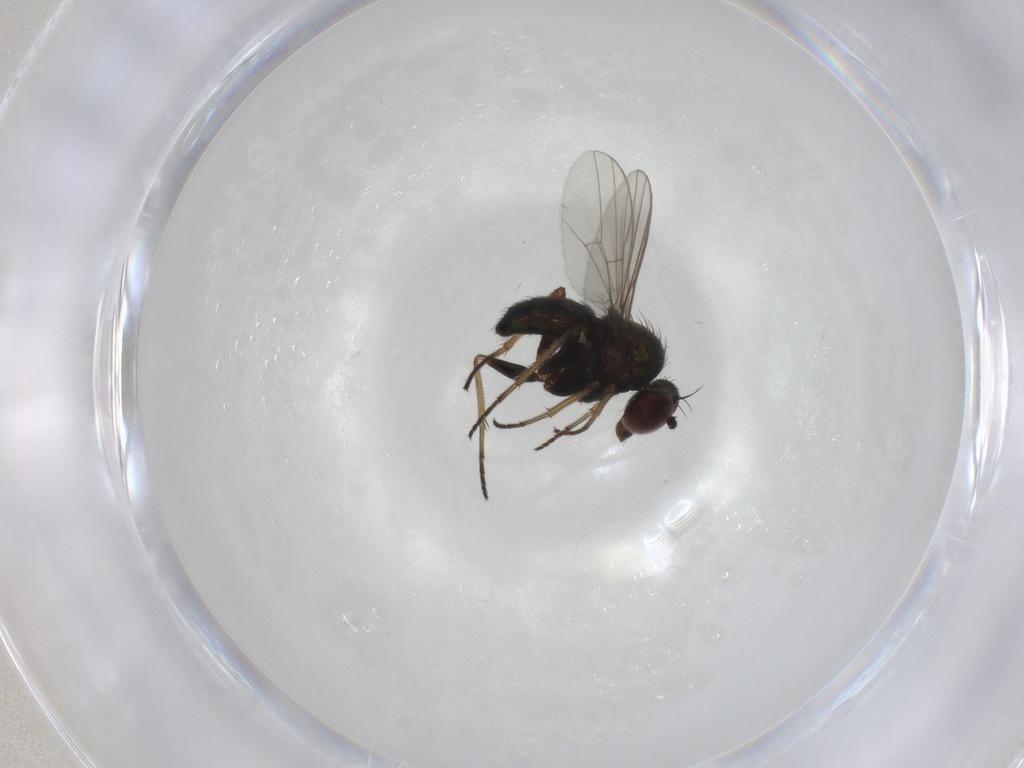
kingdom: Animalia
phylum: Arthropoda
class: Insecta
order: Diptera
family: Dolichopodidae
